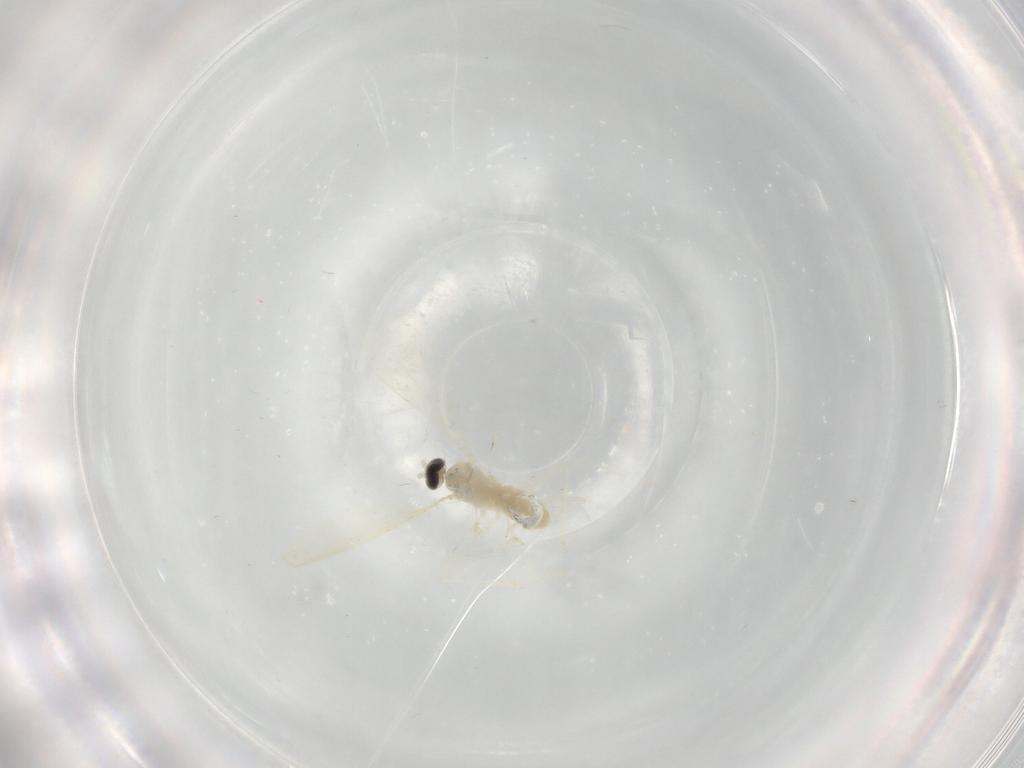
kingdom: Animalia
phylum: Arthropoda
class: Insecta
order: Diptera
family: Cecidomyiidae
